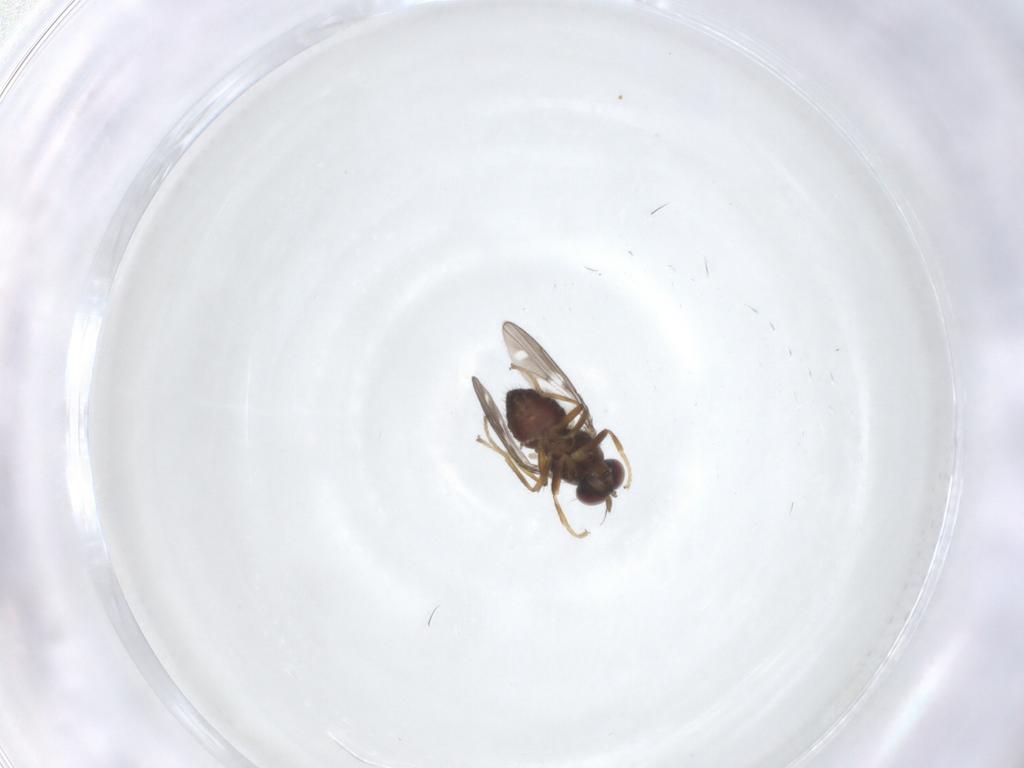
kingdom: Animalia
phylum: Arthropoda
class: Insecta
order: Diptera
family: Ephydridae
